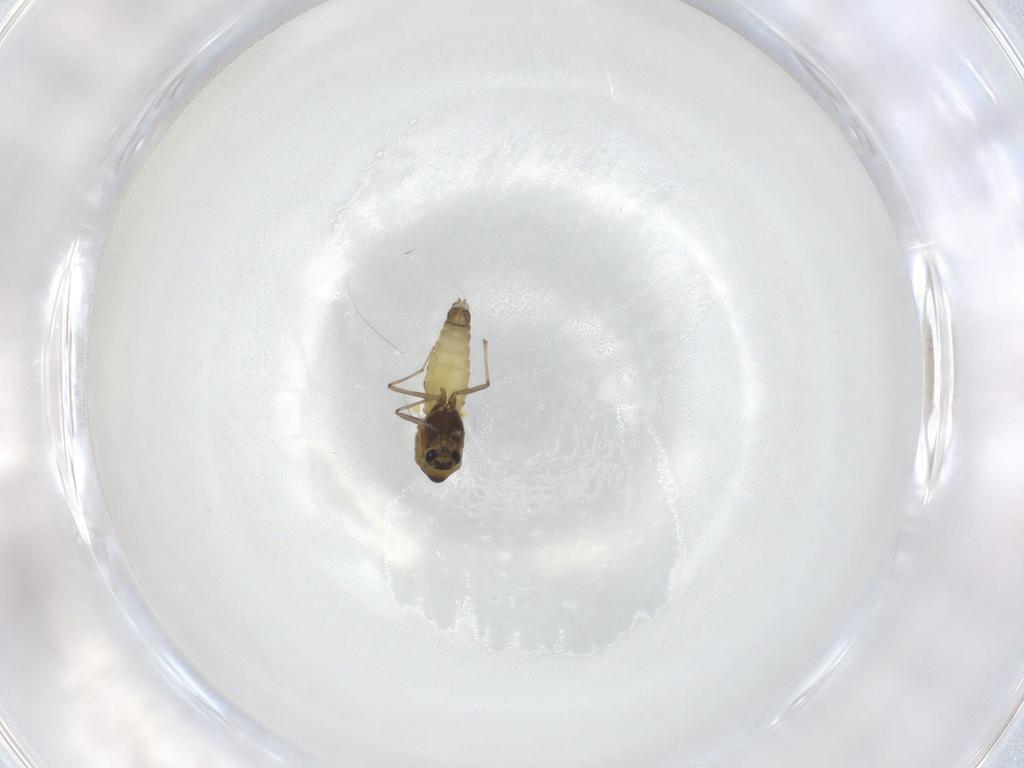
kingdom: Animalia
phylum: Arthropoda
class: Insecta
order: Diptera
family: Chironomidae
